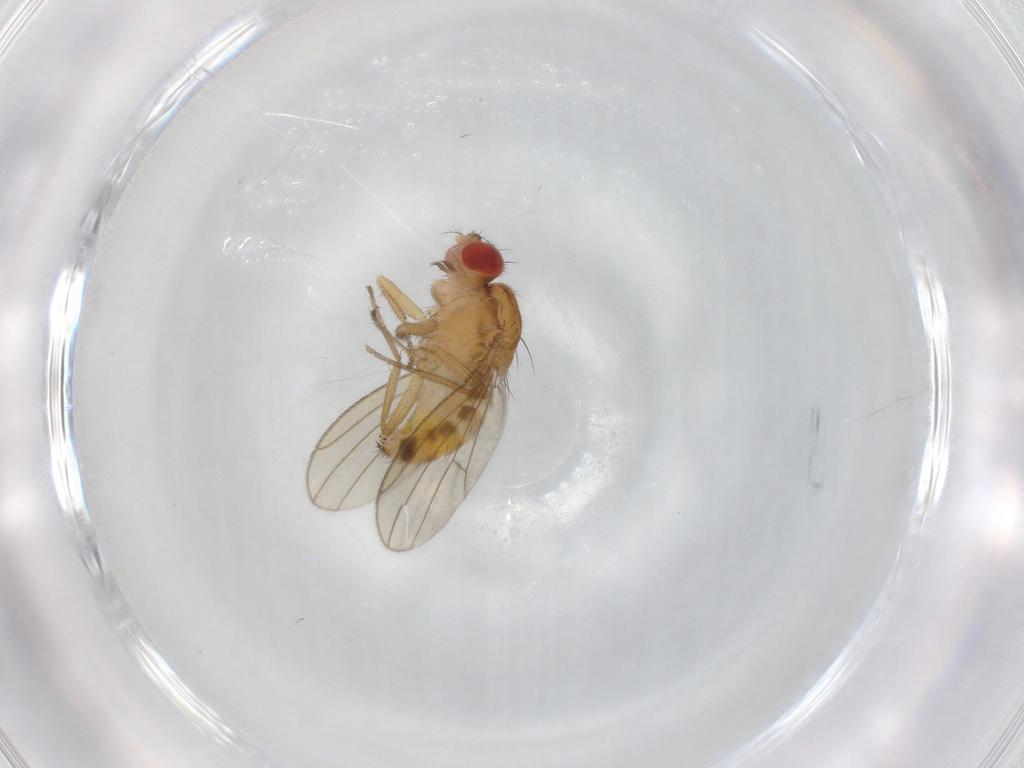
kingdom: Animalia
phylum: Arthropoda
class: Insecta
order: Diptera
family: Drosophilidae
